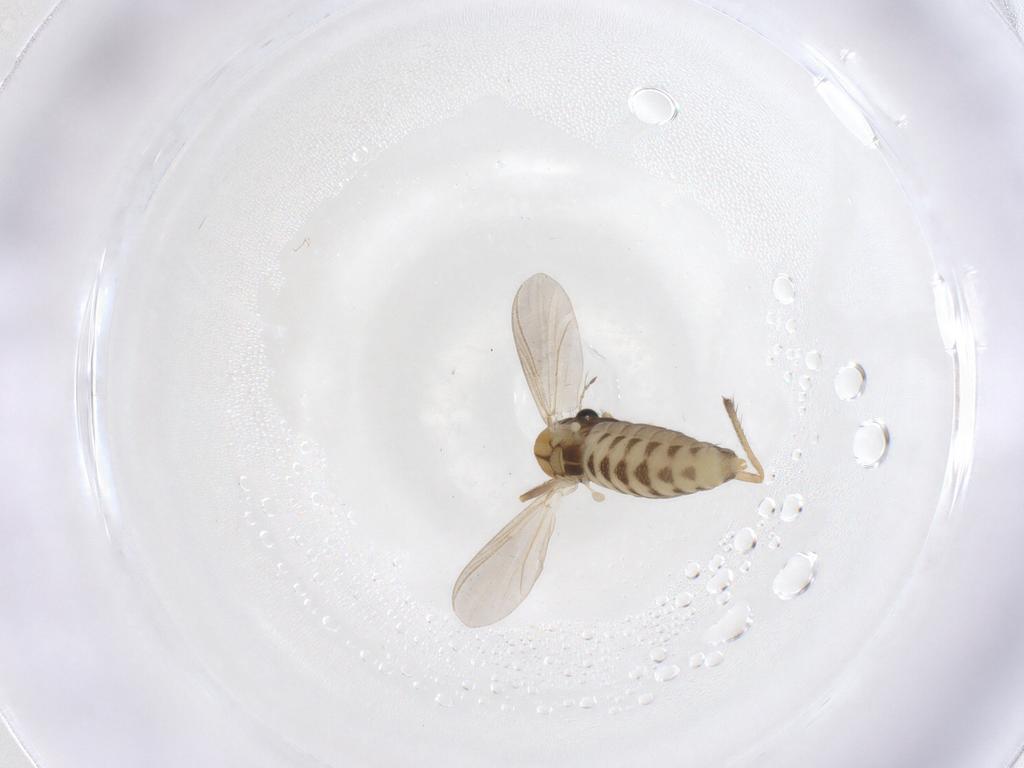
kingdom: Animalia
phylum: Arthropoda
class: Insecta
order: Diptera
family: Chironomidae
